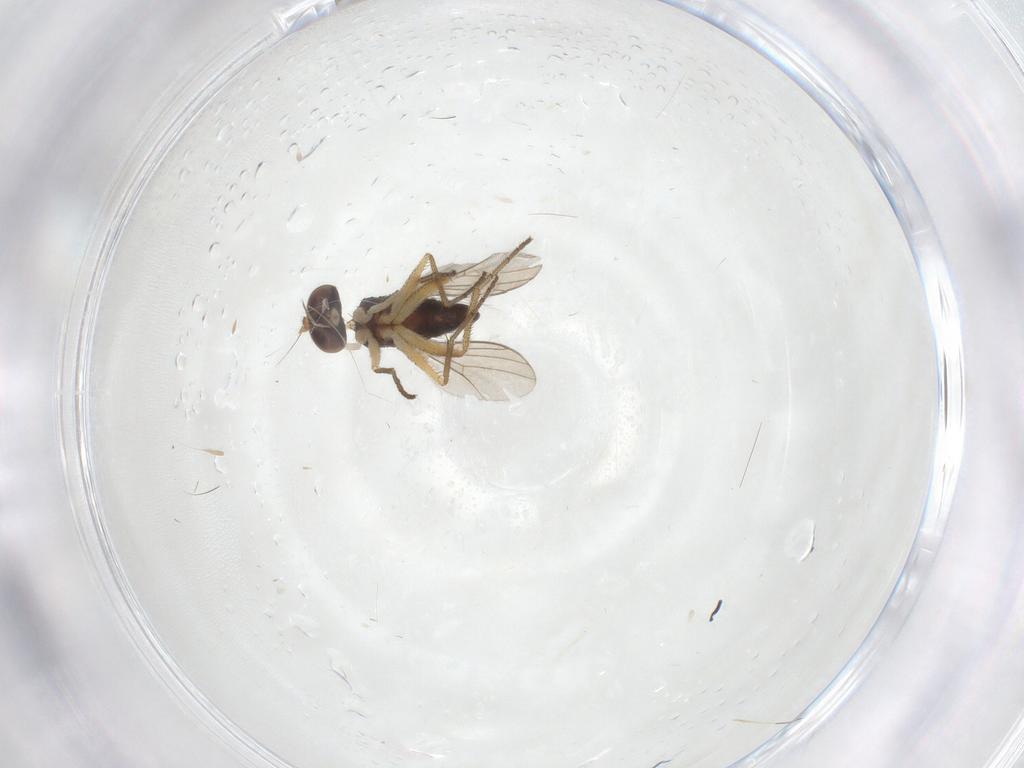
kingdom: Animalia
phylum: Arthropoda
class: Insecta
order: Diptera
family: Dolichopodidae
